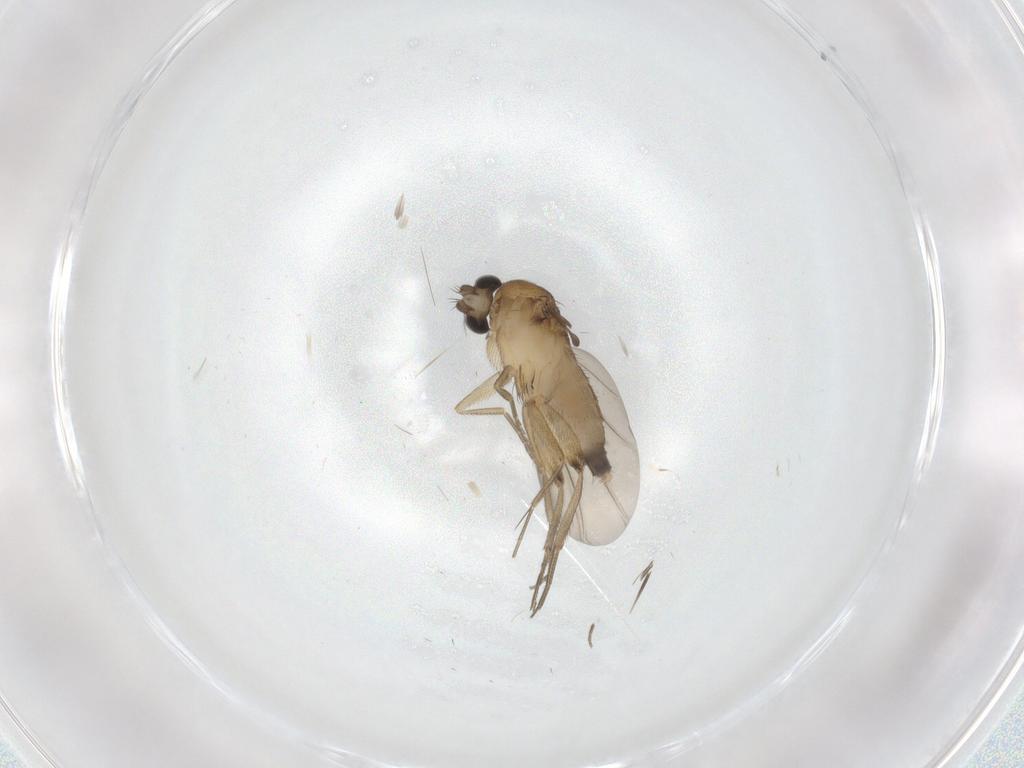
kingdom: Animalia
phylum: Arthropoda
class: Insecta
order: Diptera
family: Phoridae
